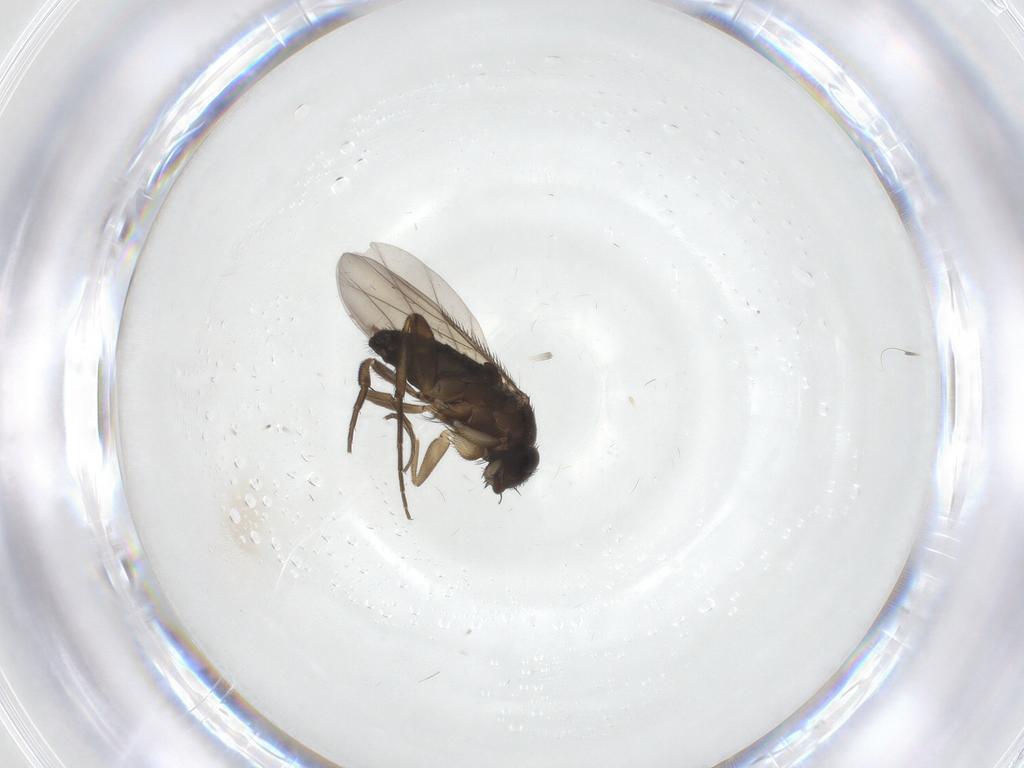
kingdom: Animalia
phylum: Arthropoda
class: Insecta
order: Diptera
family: Phoridae
